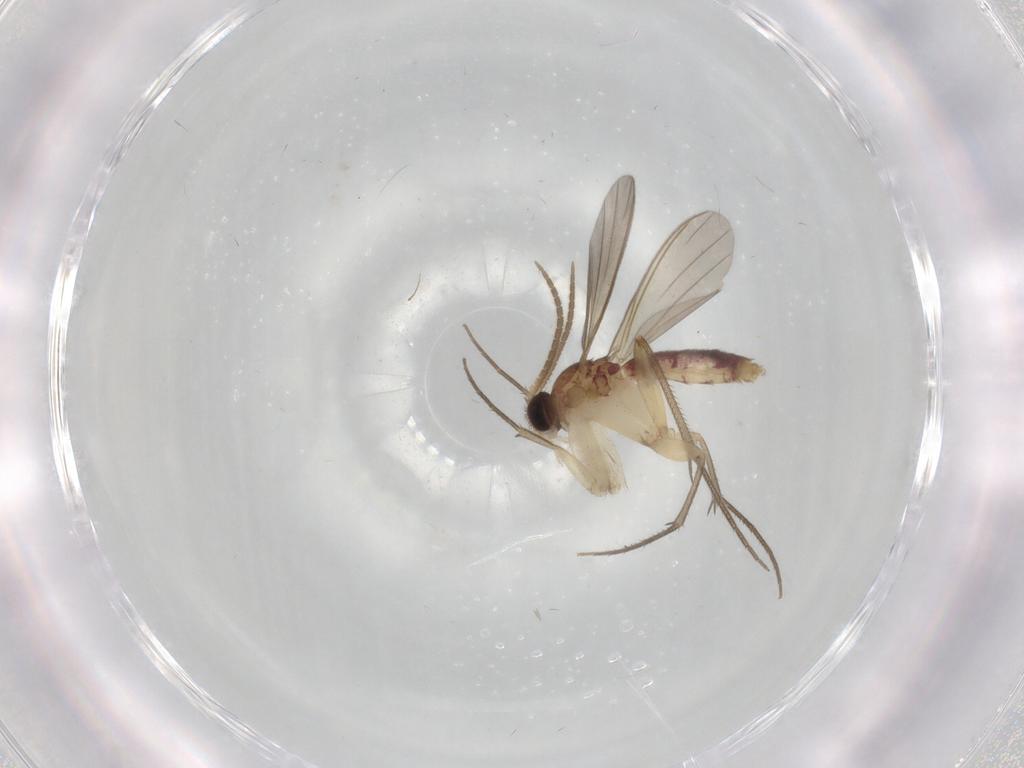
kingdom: Animalia
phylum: Arthropoda
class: Insecta
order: Diptera
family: Mycetophilidae
